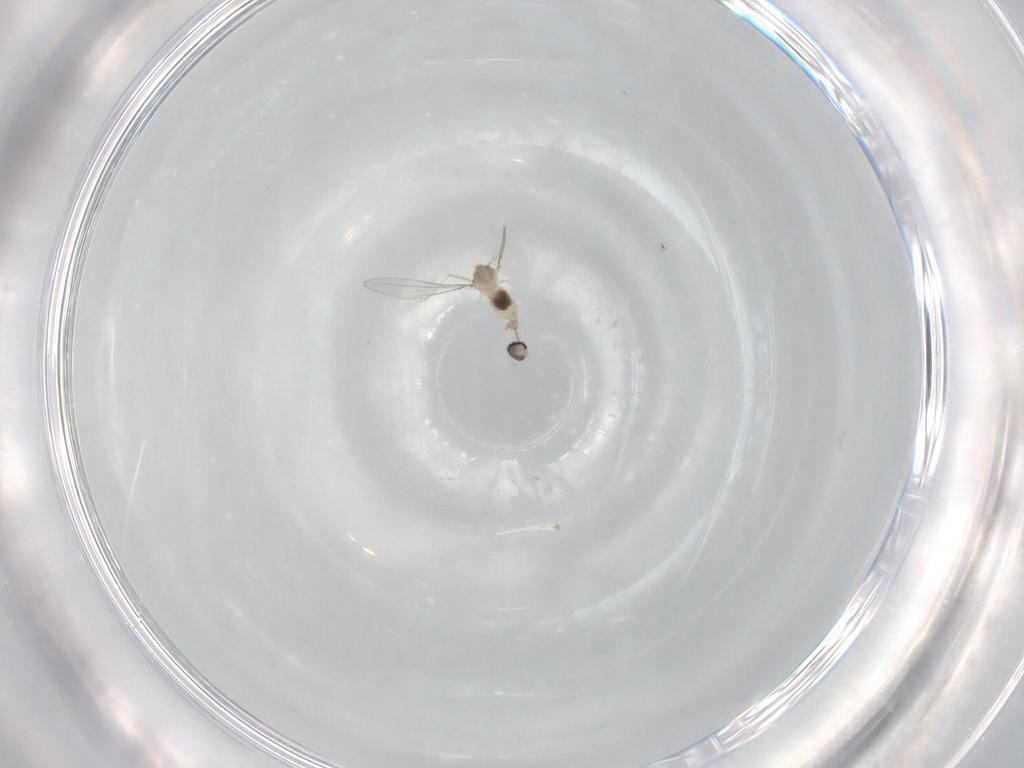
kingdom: Animalia
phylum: Arthropoda
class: Insecta
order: Diptera
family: Cecidomyiidae
